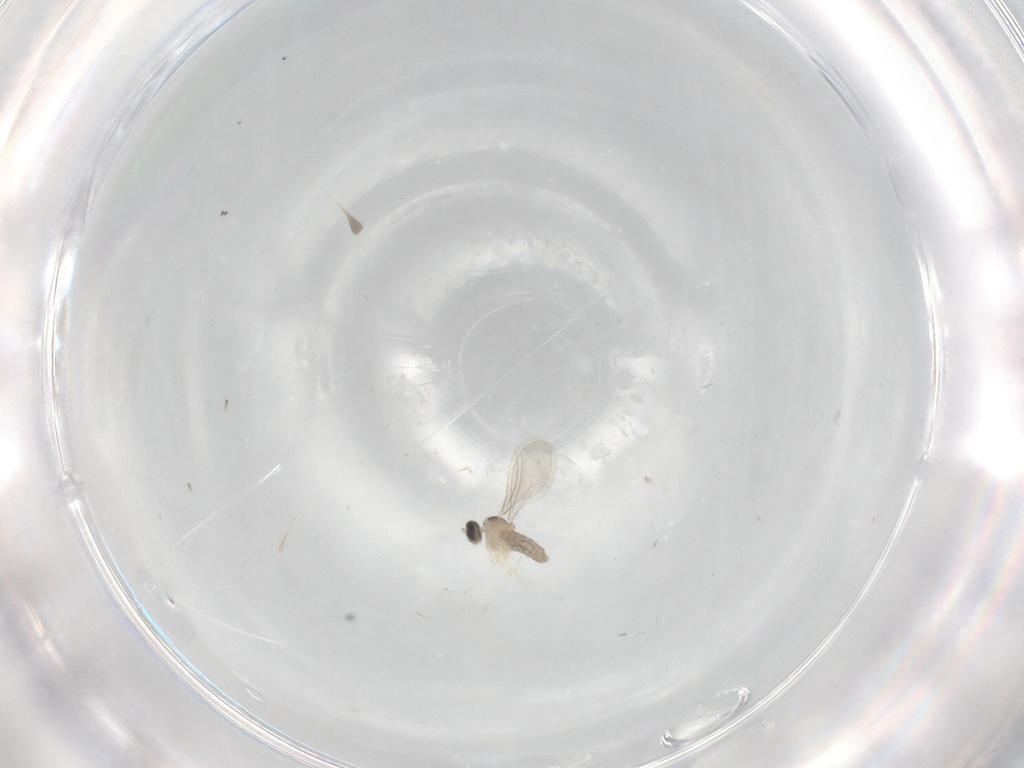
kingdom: Animalia
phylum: Arthropoda
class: Insecta
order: Diptera
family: Cecidomyiidae
